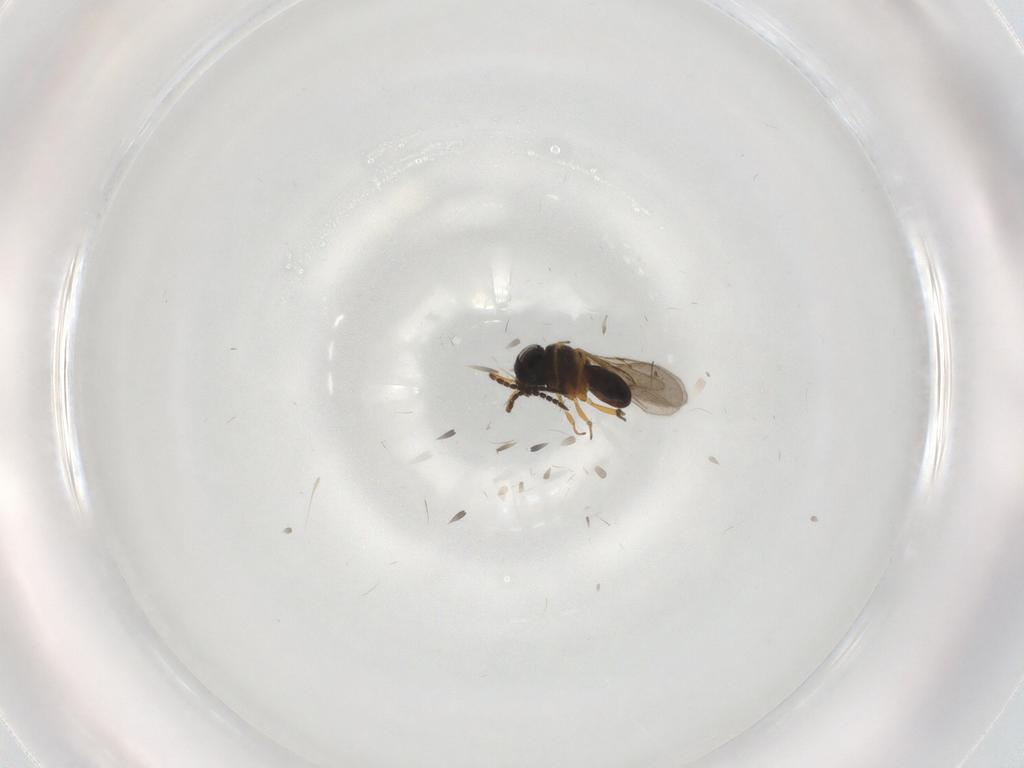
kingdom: Animalia
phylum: Arthropoda
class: Insecta
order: Hymenoptera
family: Scelionidae
